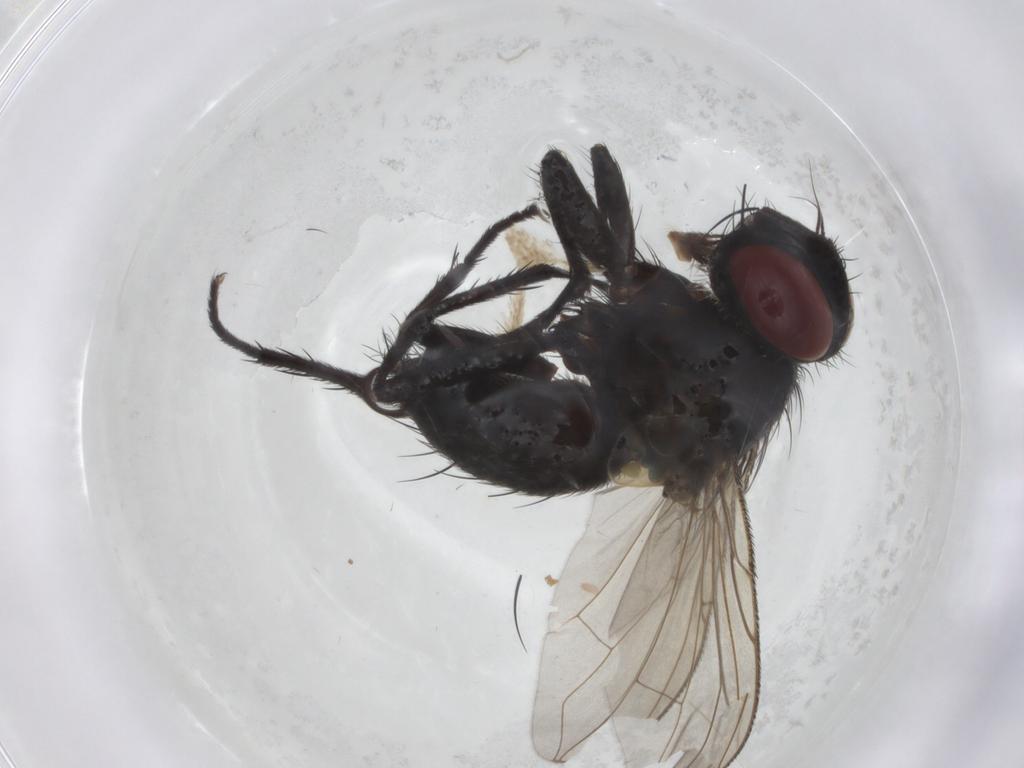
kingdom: Animalia
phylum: Arthropoda
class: Insecta
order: Diptera
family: Tachinidae
